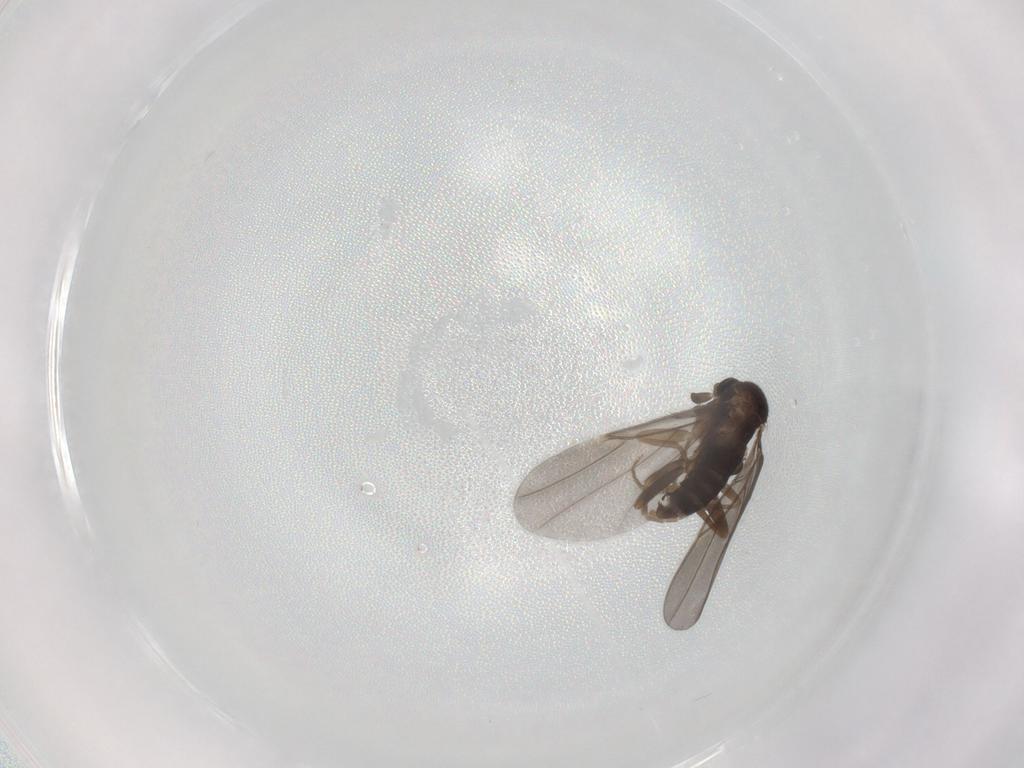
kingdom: Animalia
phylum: Arthropoda
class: Insecta
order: Diptera
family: Phoridae
